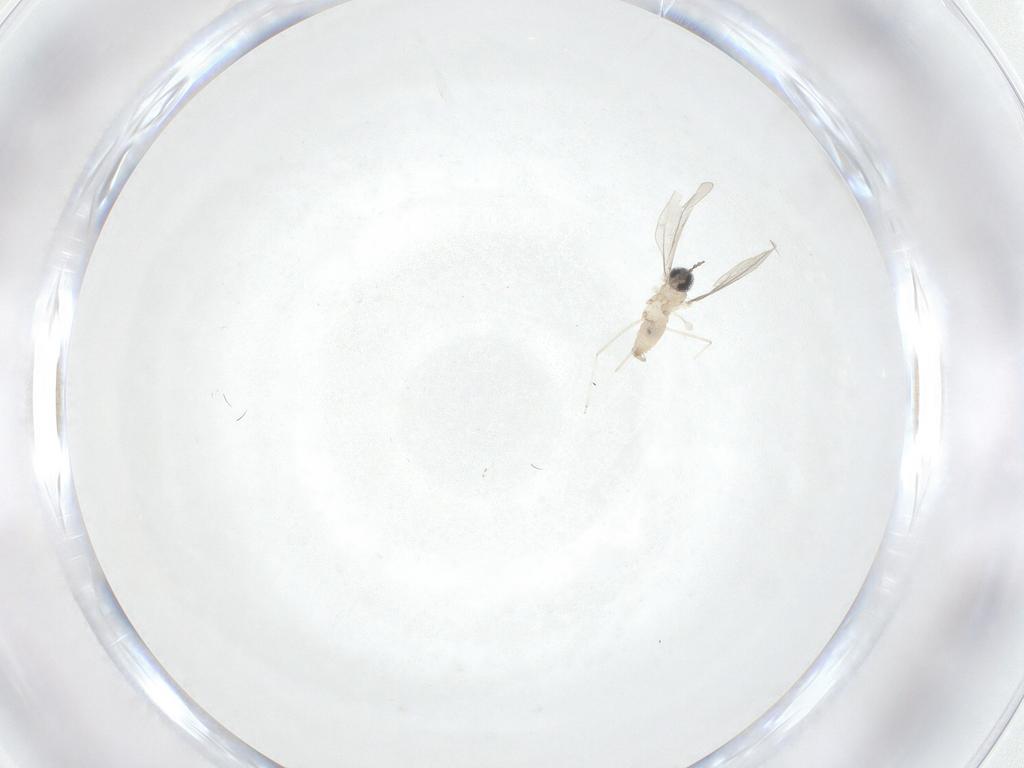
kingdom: Animalia
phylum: Arthropoda
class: Insecta
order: Diptera
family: Cecidomyiidae
